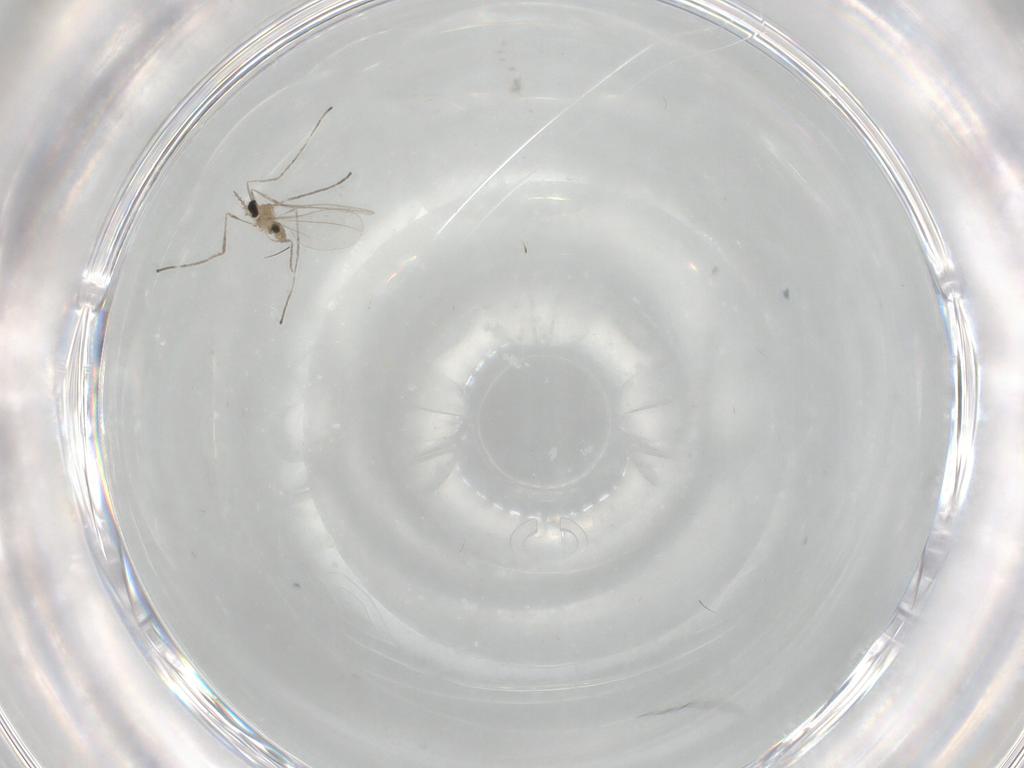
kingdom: Animalia
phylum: Arthropoda
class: Insecta
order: Diptera
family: Cecidomyiidae
